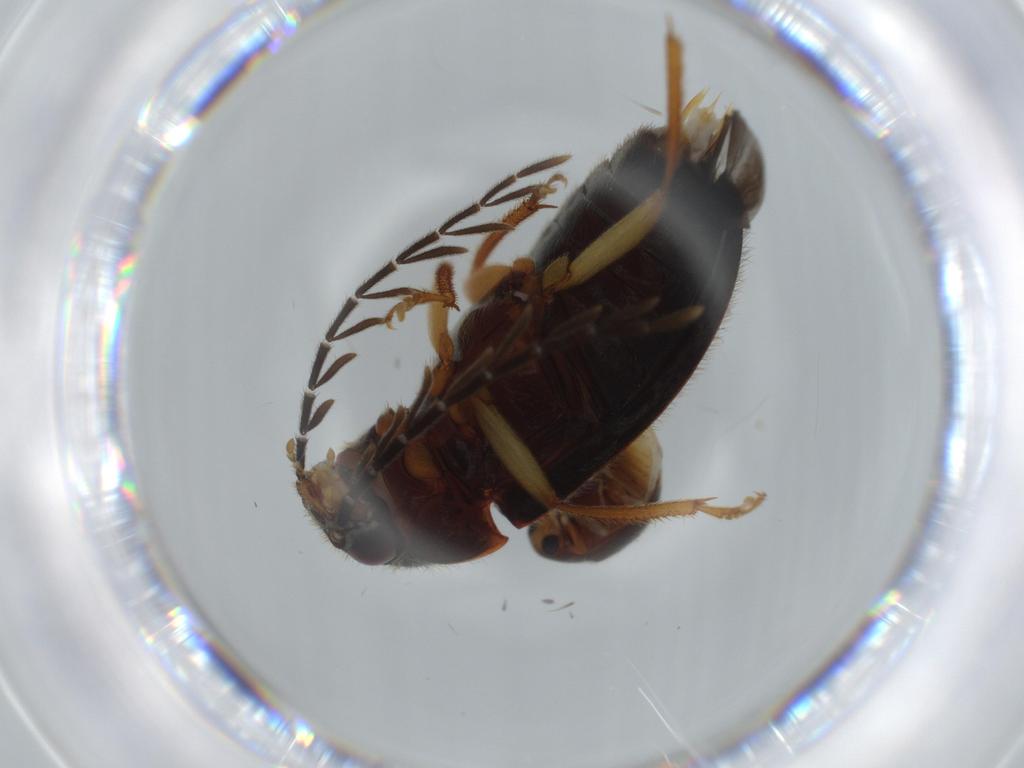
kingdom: Animalia
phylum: Arthropoda
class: Insecta
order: Coleoptera
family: Ptilodactylidae
